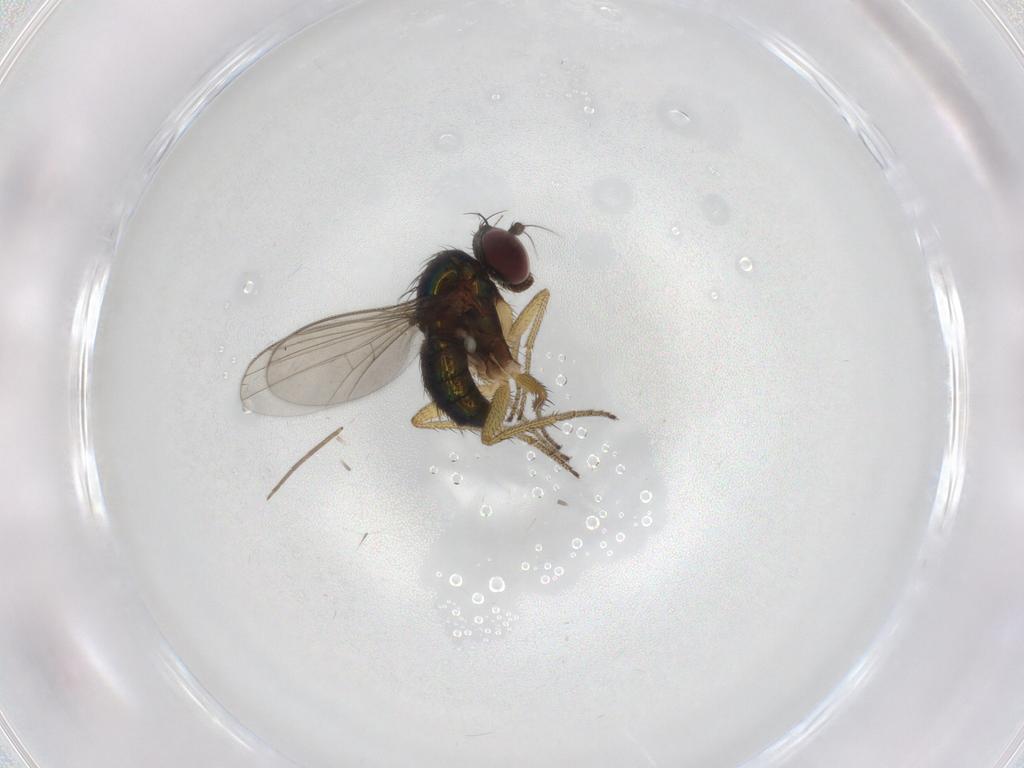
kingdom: Animalia
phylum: Arthropoda
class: Insecta
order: Diptera
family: Dolichopodidae
